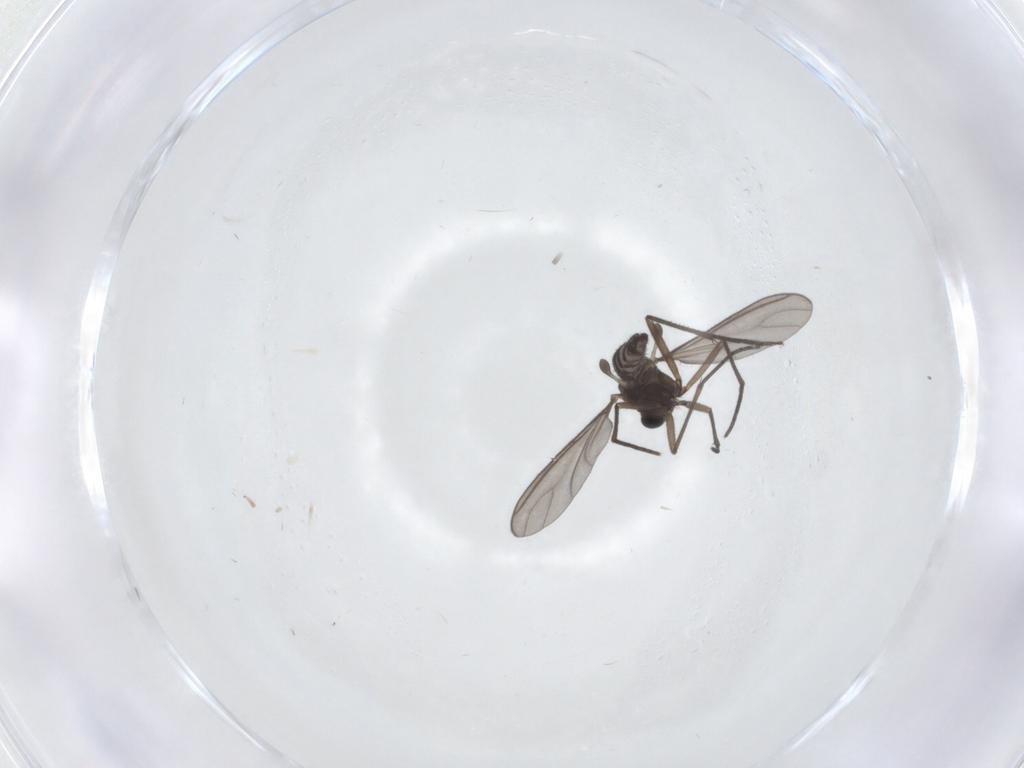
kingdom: Animalia
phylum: Arthropoda
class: Insecta
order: Diptera
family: Sciaridae
